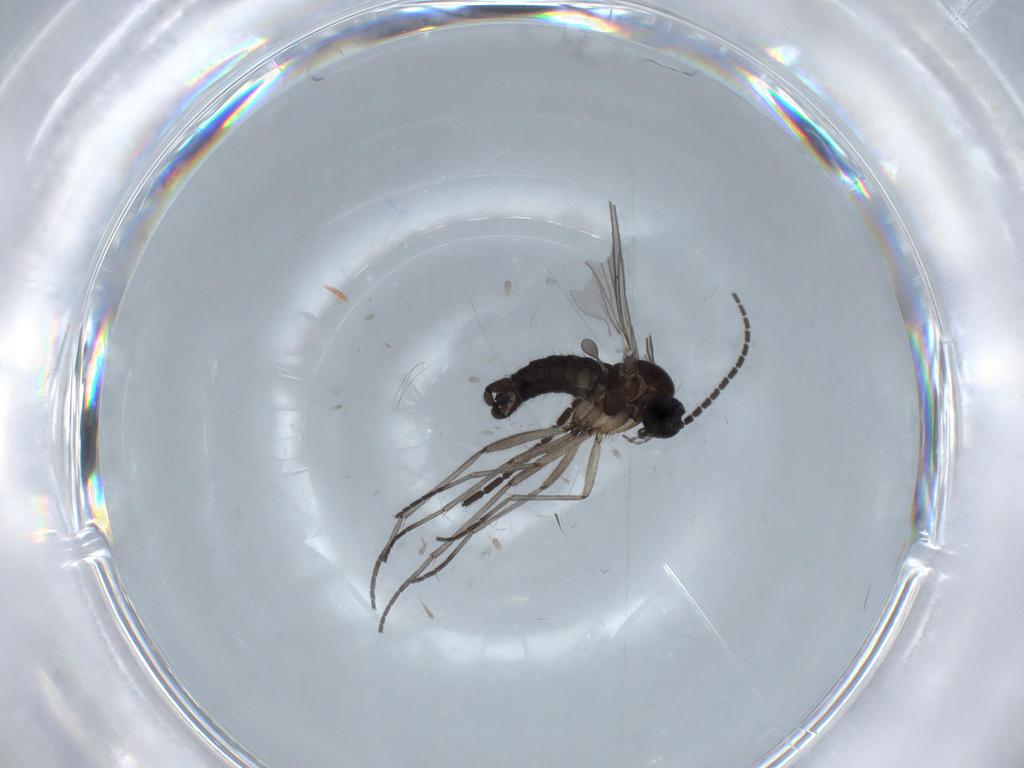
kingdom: Animalia
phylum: Arthropoda
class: Insecta
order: Diptera
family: Sciaridae
